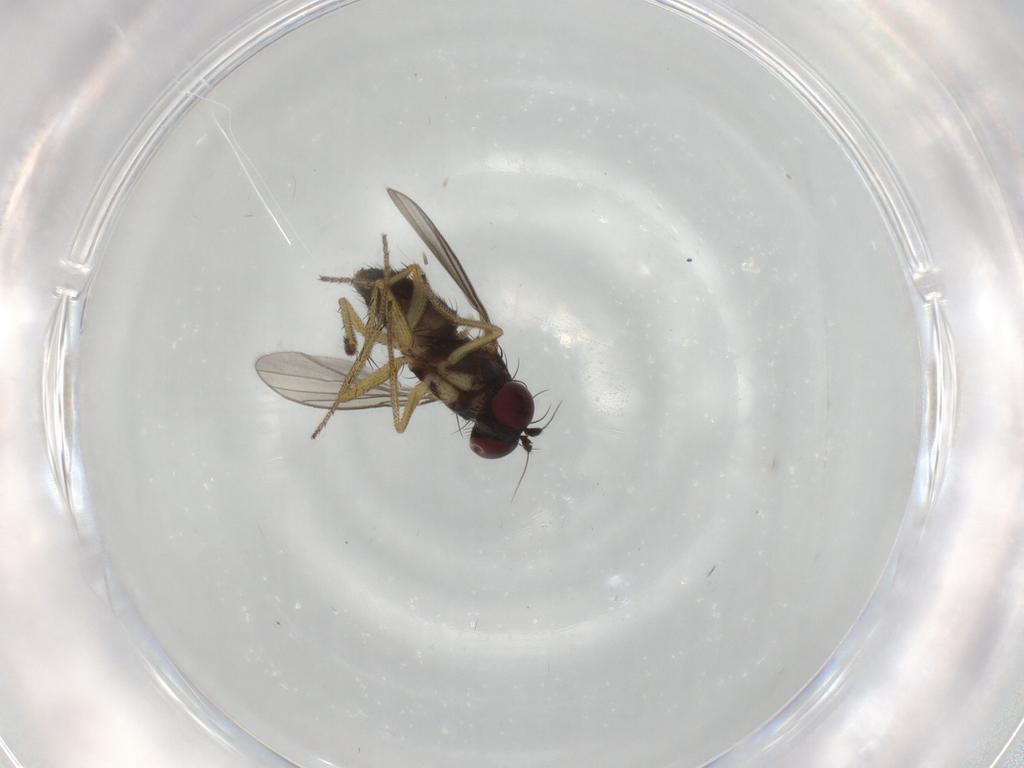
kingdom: Animalia
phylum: Arthropoda
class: Insecta
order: Diptera
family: Dolichopodidae
